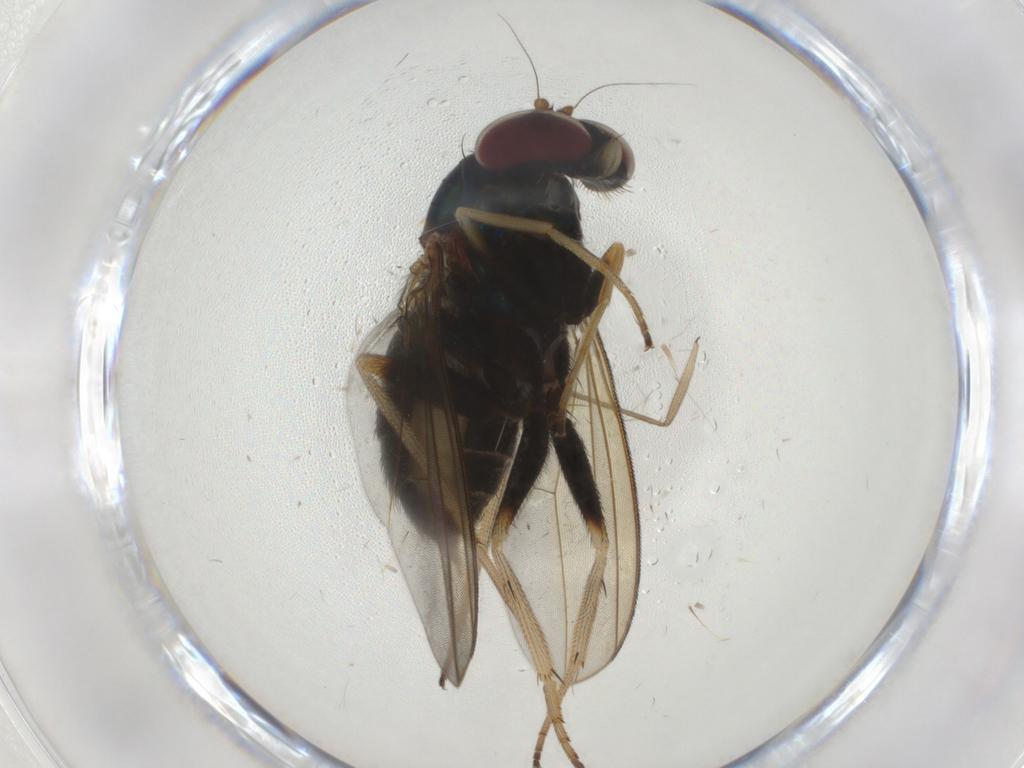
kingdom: Animalia
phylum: Arthropoda
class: Insecta
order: Diptera
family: Dolichopodidae
